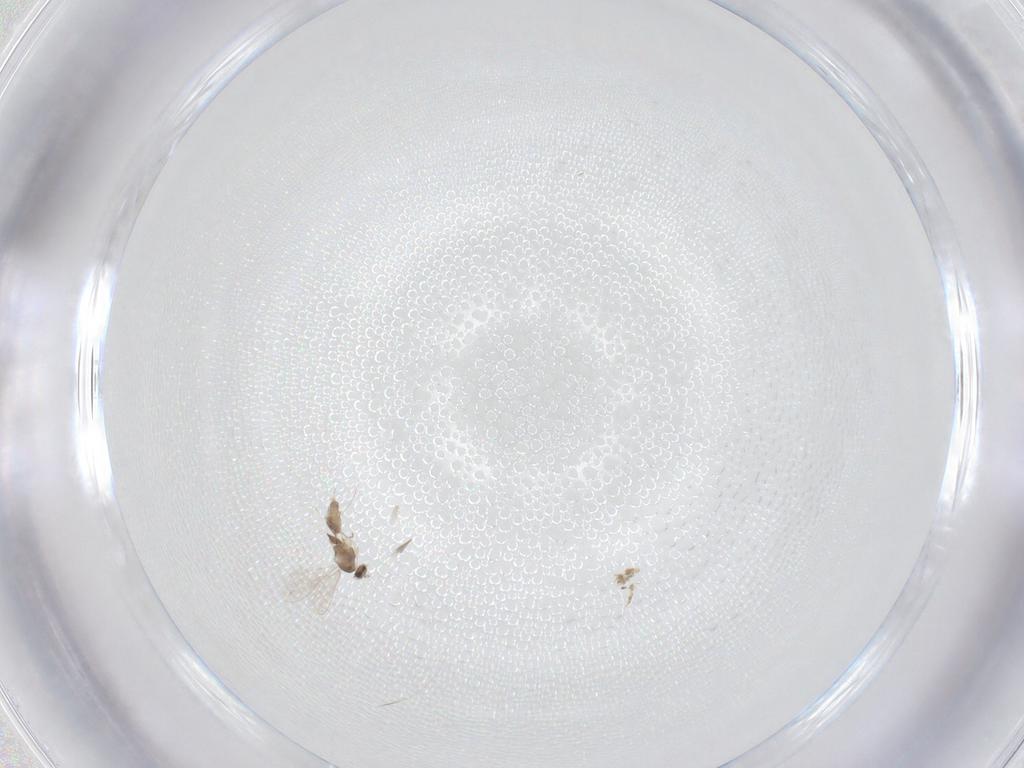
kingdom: Animalia
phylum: Arthropoda
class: Insecta
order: Diptera
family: Cecidomyiidae
